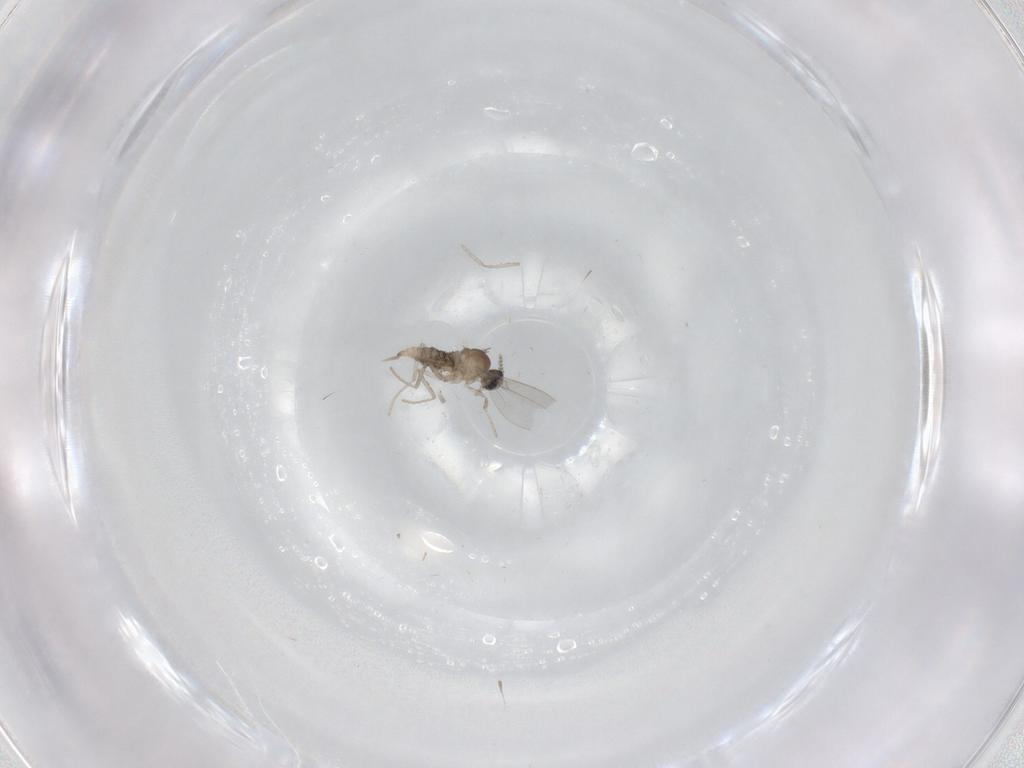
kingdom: Animalia
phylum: Arthropoda
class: Insecta
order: Diptera
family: Cecidomyiidae
